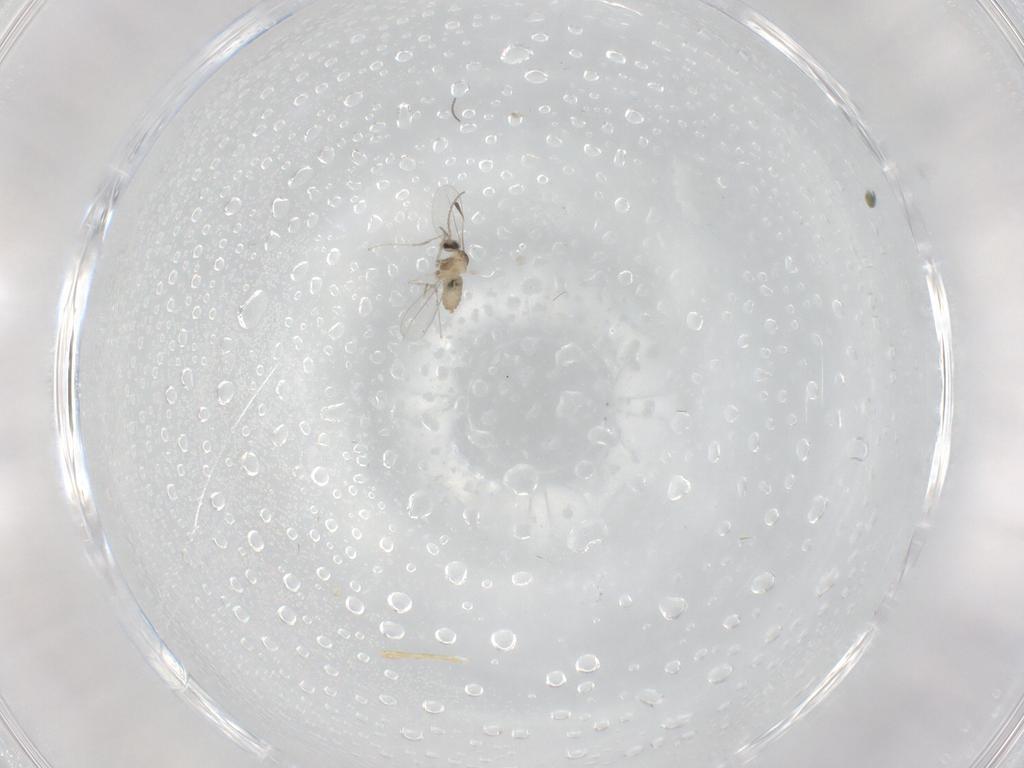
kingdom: Animalia
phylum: Arthropoda
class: Insecta
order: Diptera
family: Cecidomyiidae
